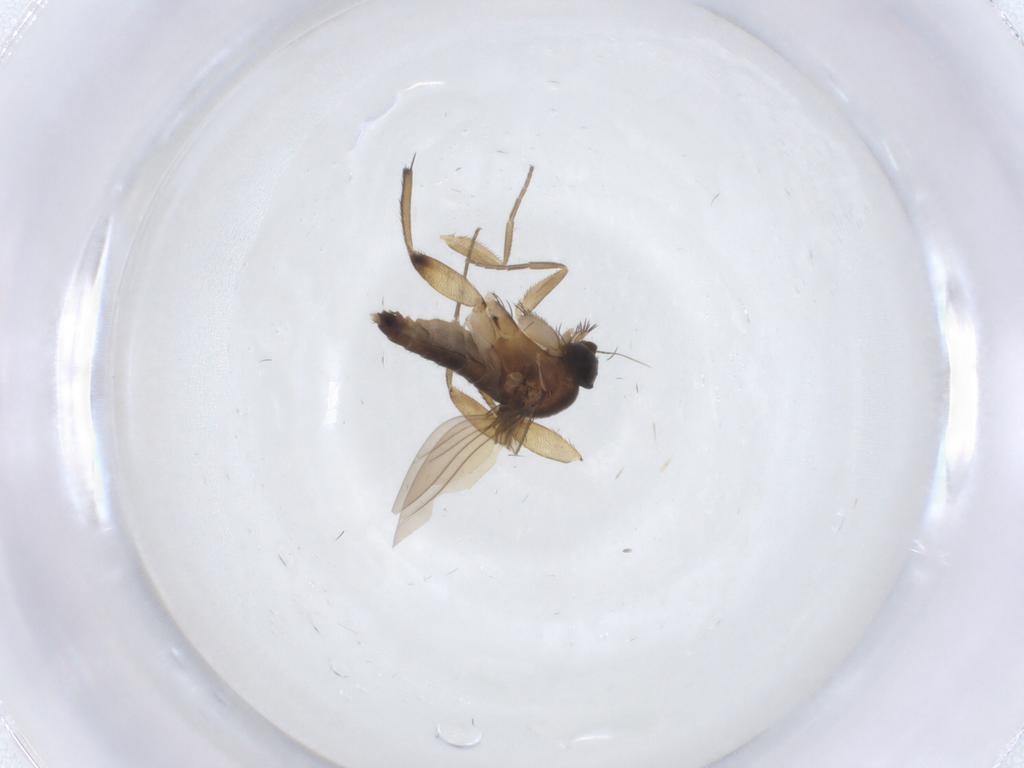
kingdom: Animalia
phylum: Arthropoda
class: Insecta
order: Diptera
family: Phoridae
